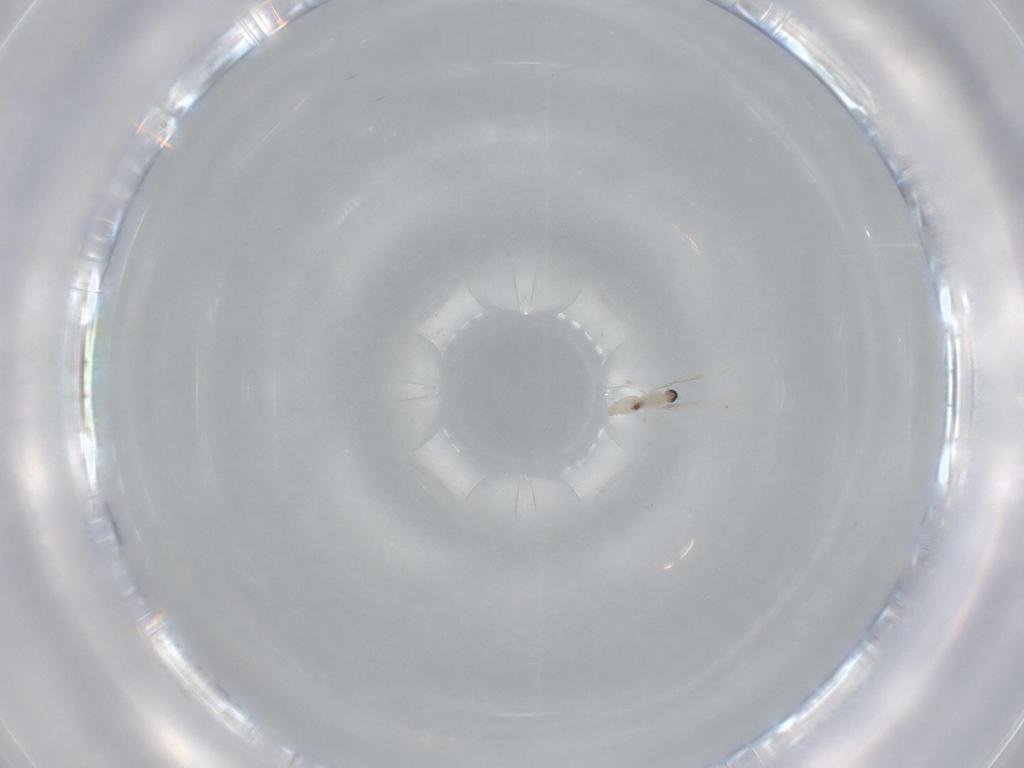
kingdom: Animalia
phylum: Arthropoda
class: Insecta
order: Diptera
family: Cecidomyiidae
